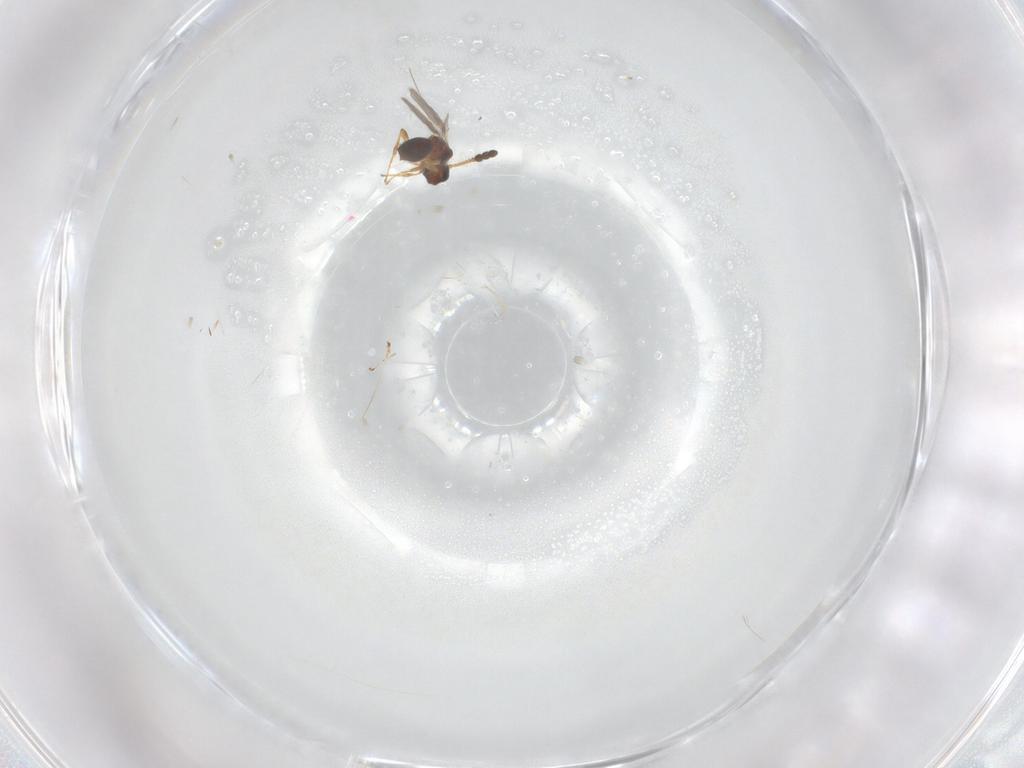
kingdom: Animalia
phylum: Arthropoda
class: Insecta
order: Hymenoptera
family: Diapriidae
